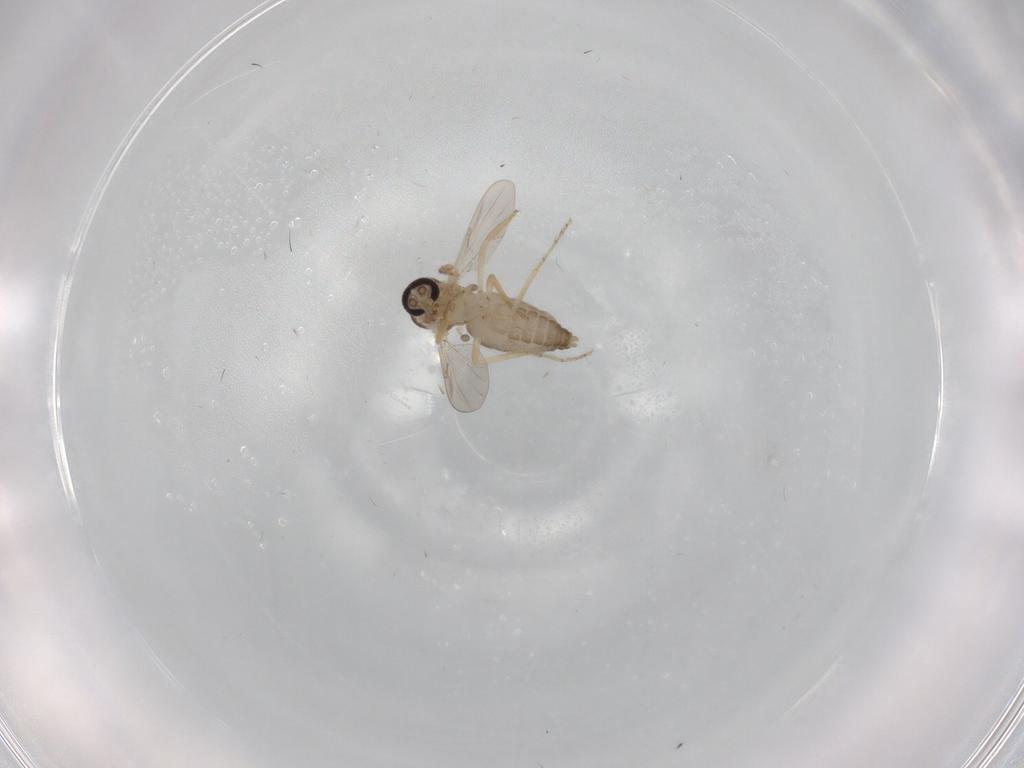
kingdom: Animalia
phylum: Arthropoda
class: Insecta
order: Diptera
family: Ceratopogonidae
